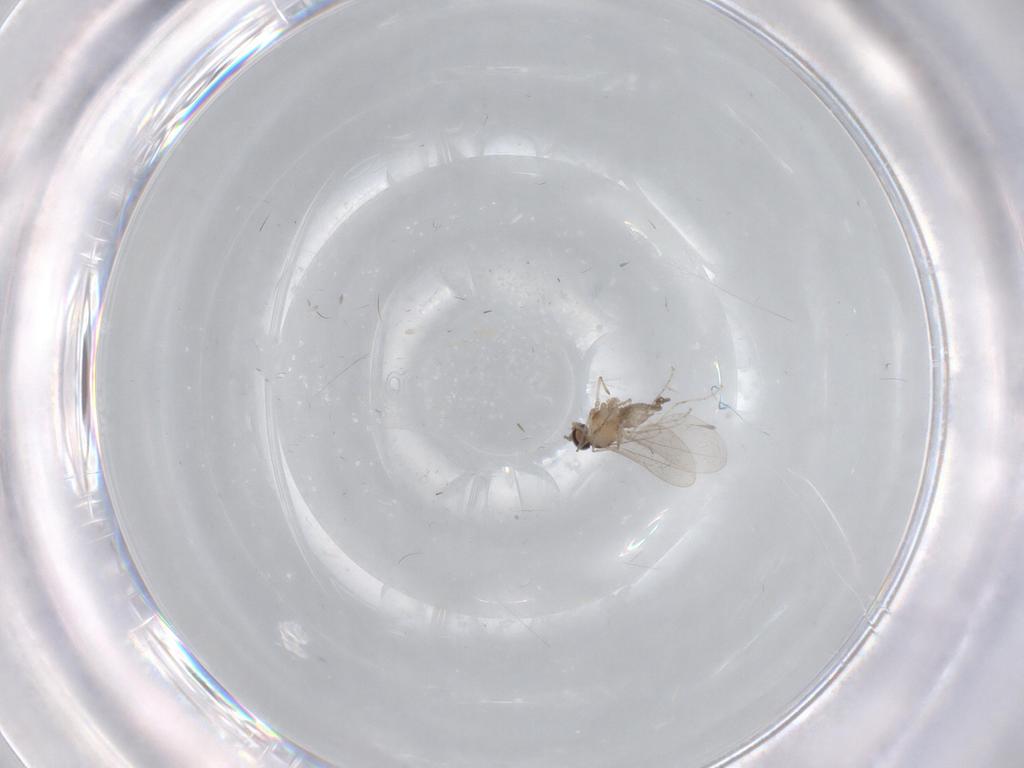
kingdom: Animalia
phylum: Arthropoda
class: Insecta
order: Diptera
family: Cecidomyiidae
